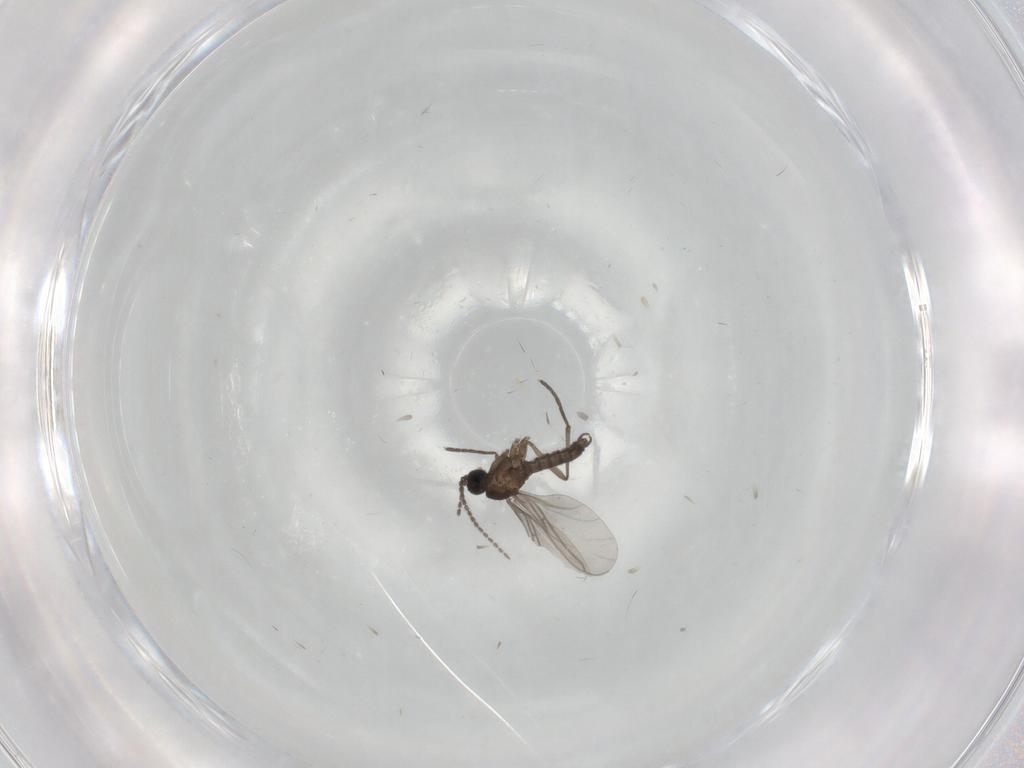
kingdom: Animalia
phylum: Arthropoda
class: Insecta
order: Diptera
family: Sciaridae
